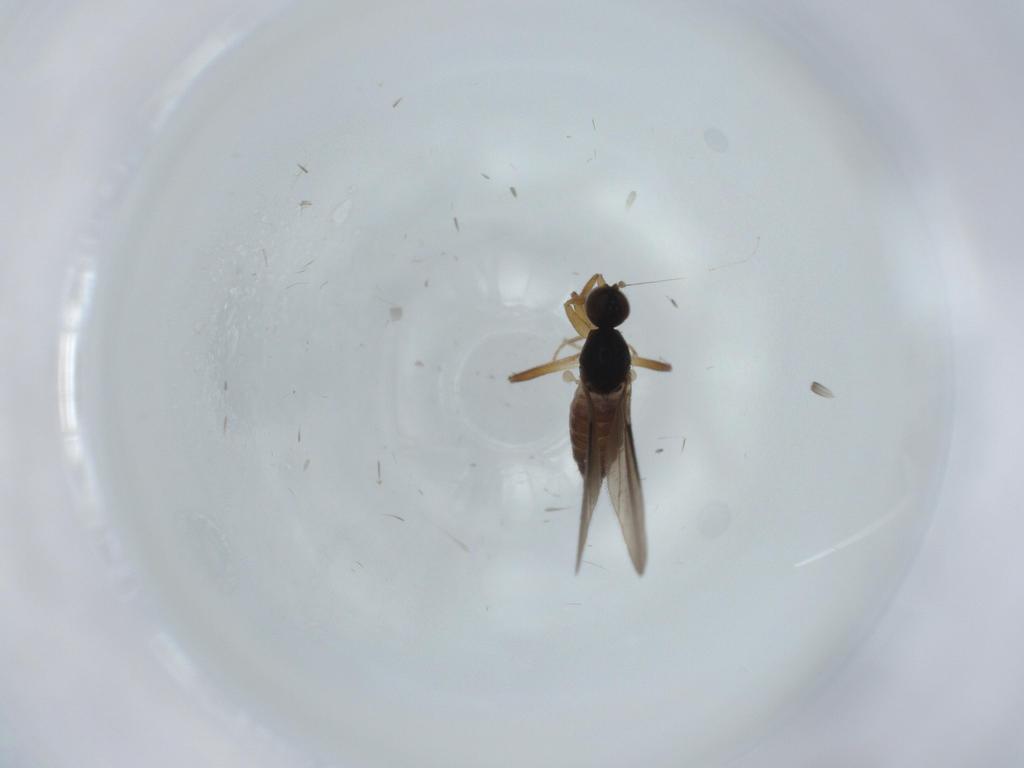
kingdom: Animalia
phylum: Arthropoda
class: Insecta
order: Diptera
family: Hybotidae
